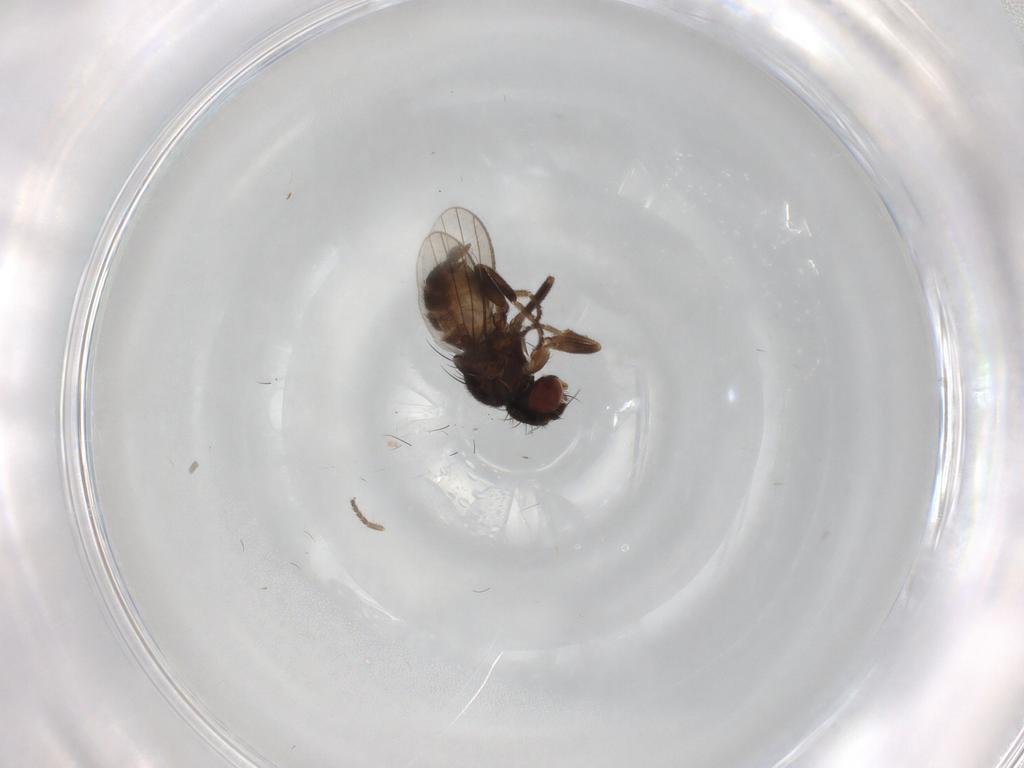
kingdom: Animalia
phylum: Arthropoda
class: Insecta
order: Diptera
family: Milichiidae
